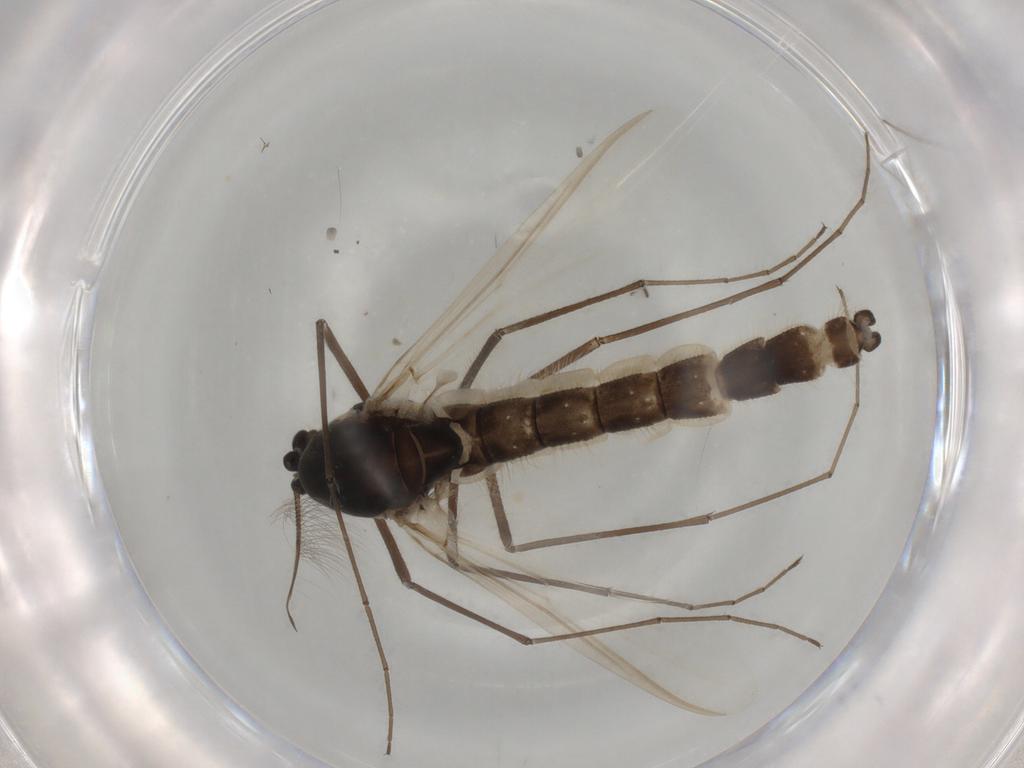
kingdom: Animalia
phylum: Arthropoda
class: Insecta
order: Diptera
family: Chironomidae
